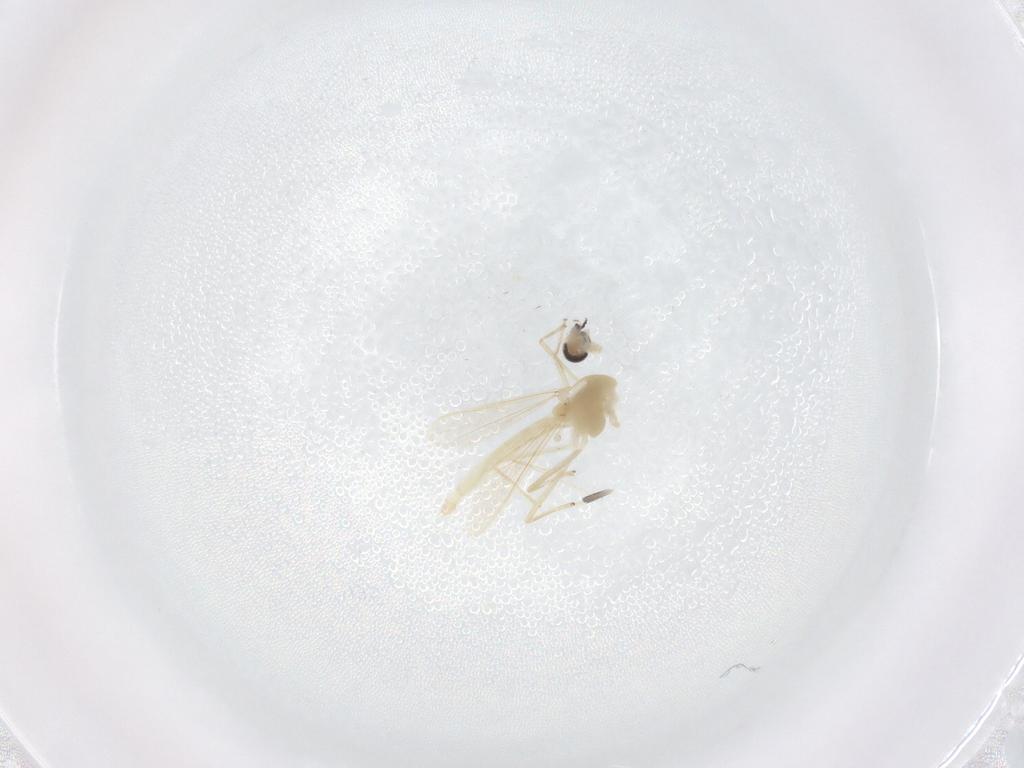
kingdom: Animalia
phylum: Arthropoda
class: Insecta
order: Diptera
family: Chironomidae
